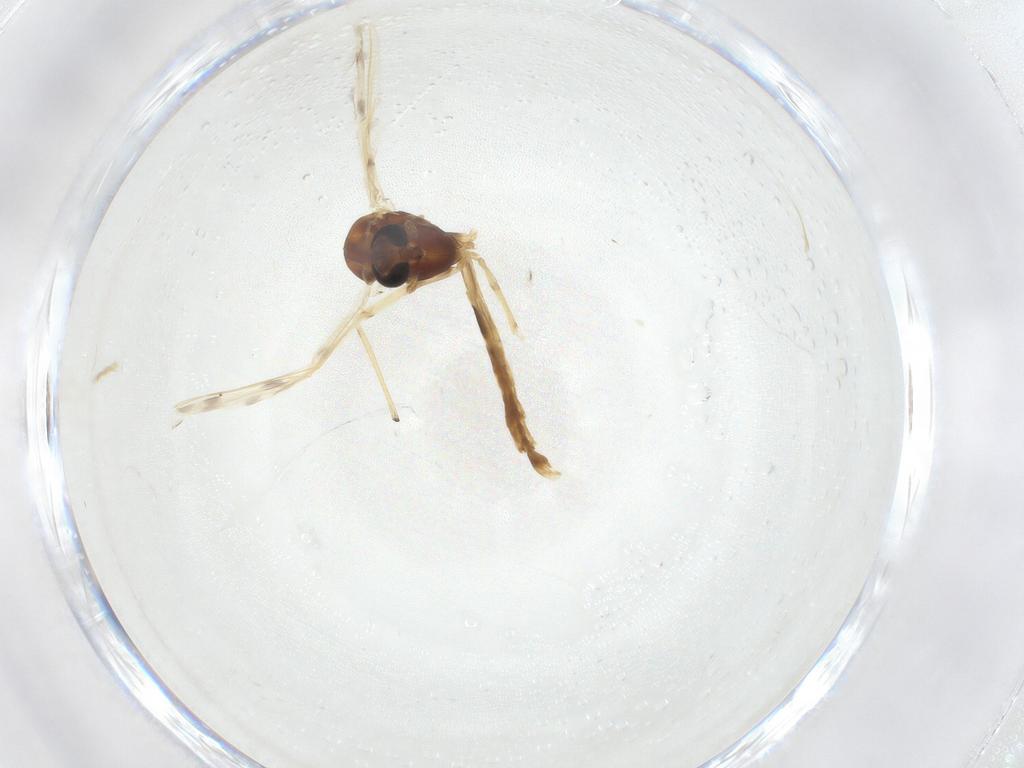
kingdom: Animalia
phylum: Arthropoda
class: Insecta
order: Diptera
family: Chironomidae
